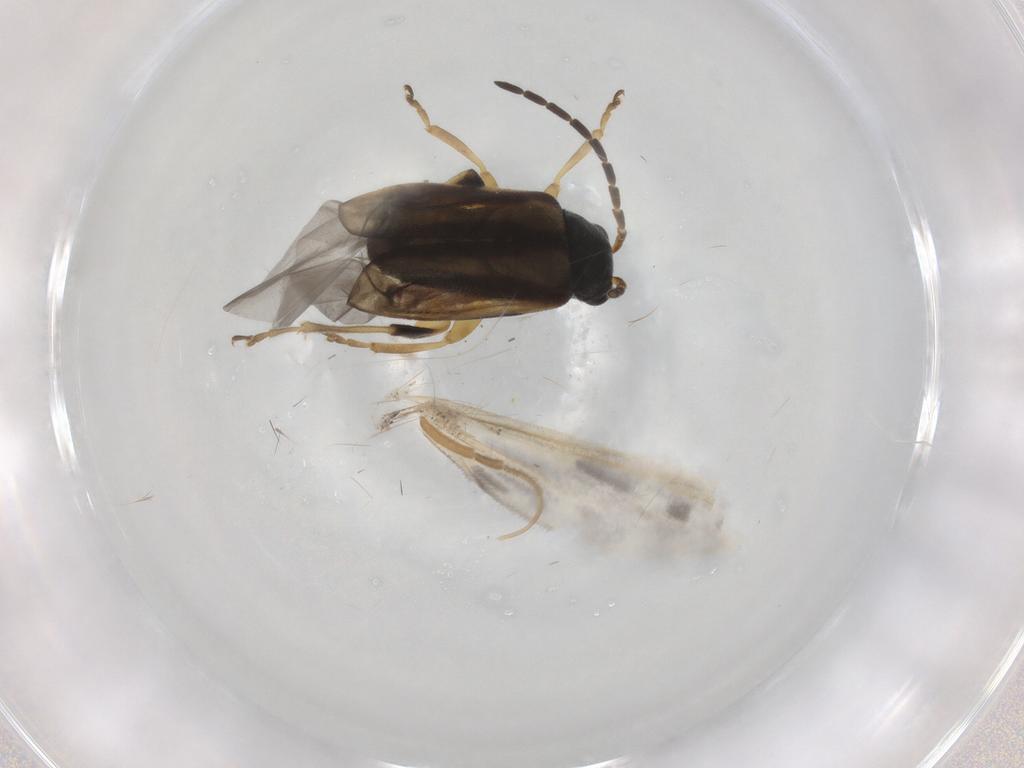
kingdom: Animalia
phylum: Arthropoda
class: Insecta
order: Coleoptera
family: Chrysomelidae
